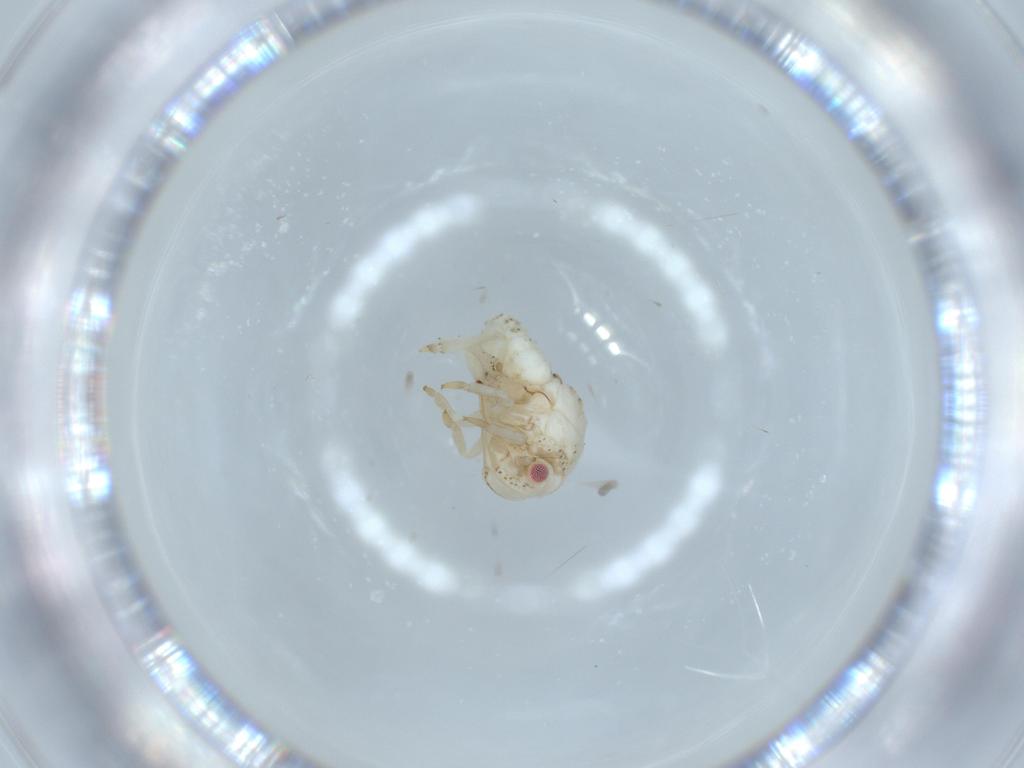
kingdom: Animalia
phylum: Arthropoda
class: Insecta
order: Hemiptera
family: Acanaloniidae
